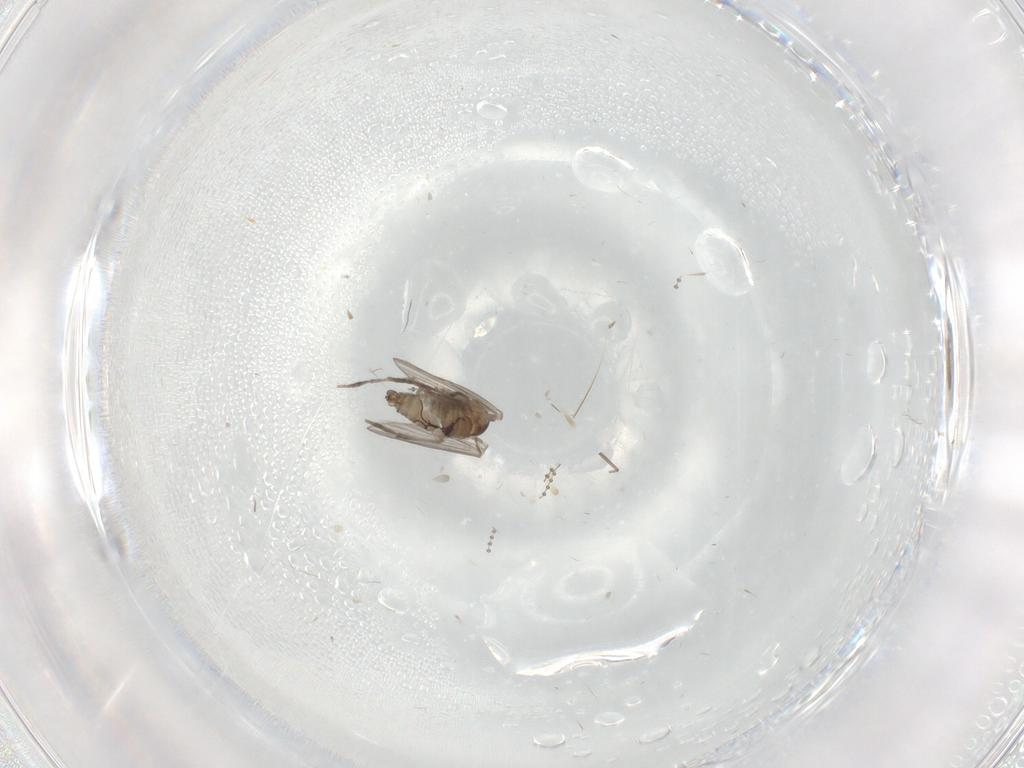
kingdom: Animalia
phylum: Arthropoda
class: Insecta
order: Diptera
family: Psychodidae
